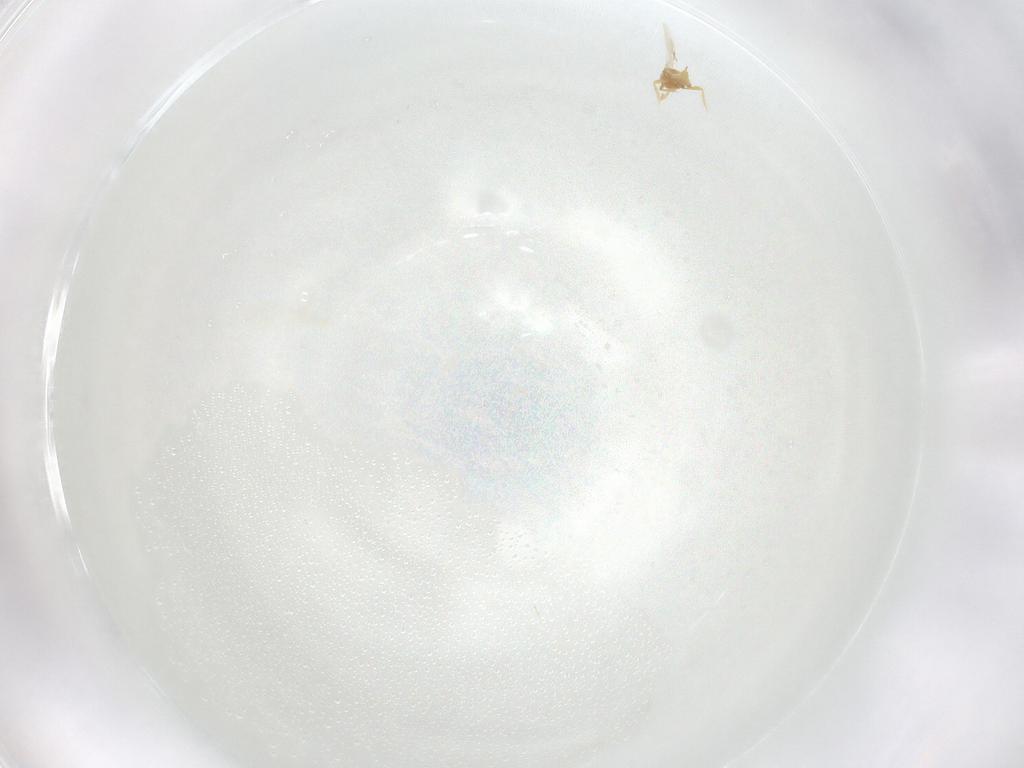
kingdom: Animalia
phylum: Arthropoda
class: Insecta
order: Diptera
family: Ceratopogonidae
